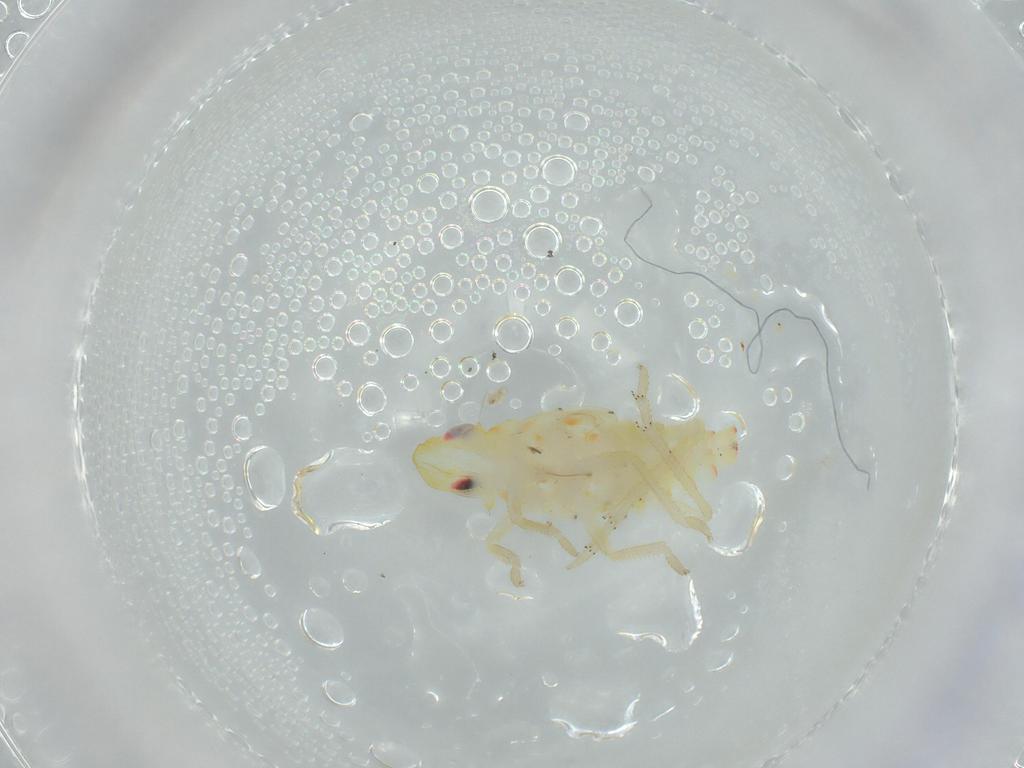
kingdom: Animalia
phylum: Arthropoda
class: Insecta
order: Hemiptera
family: Tropiduchidae
